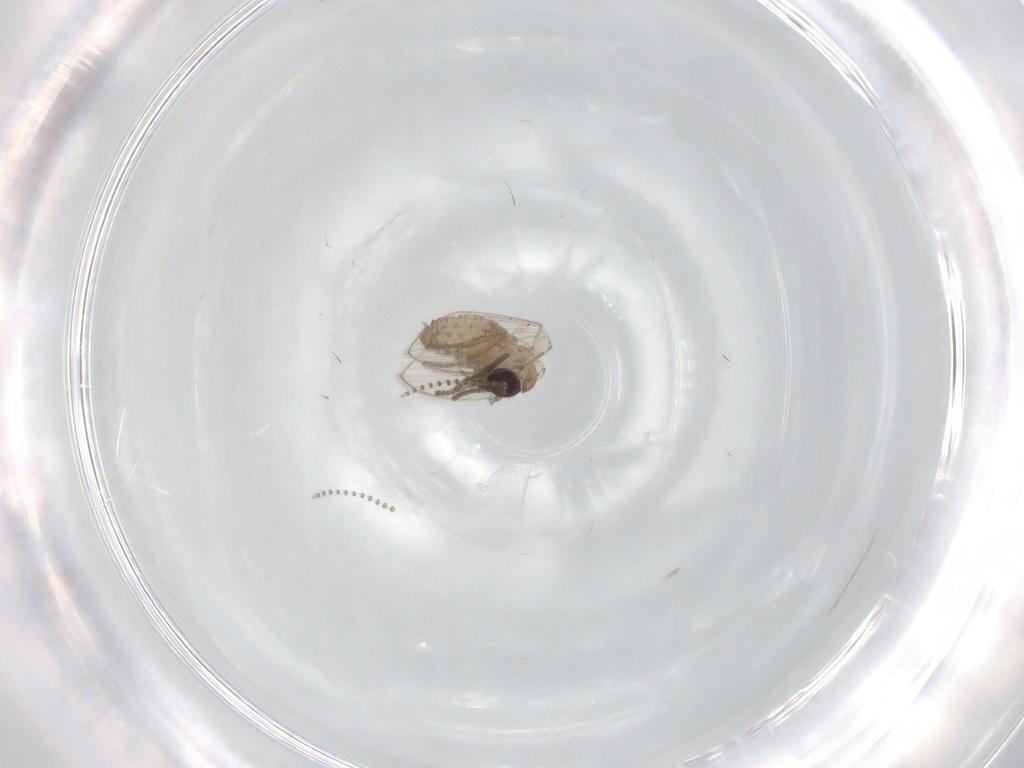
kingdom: Animalia
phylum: Arthropoda
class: Insecta
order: Diptera
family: Psychodidae
